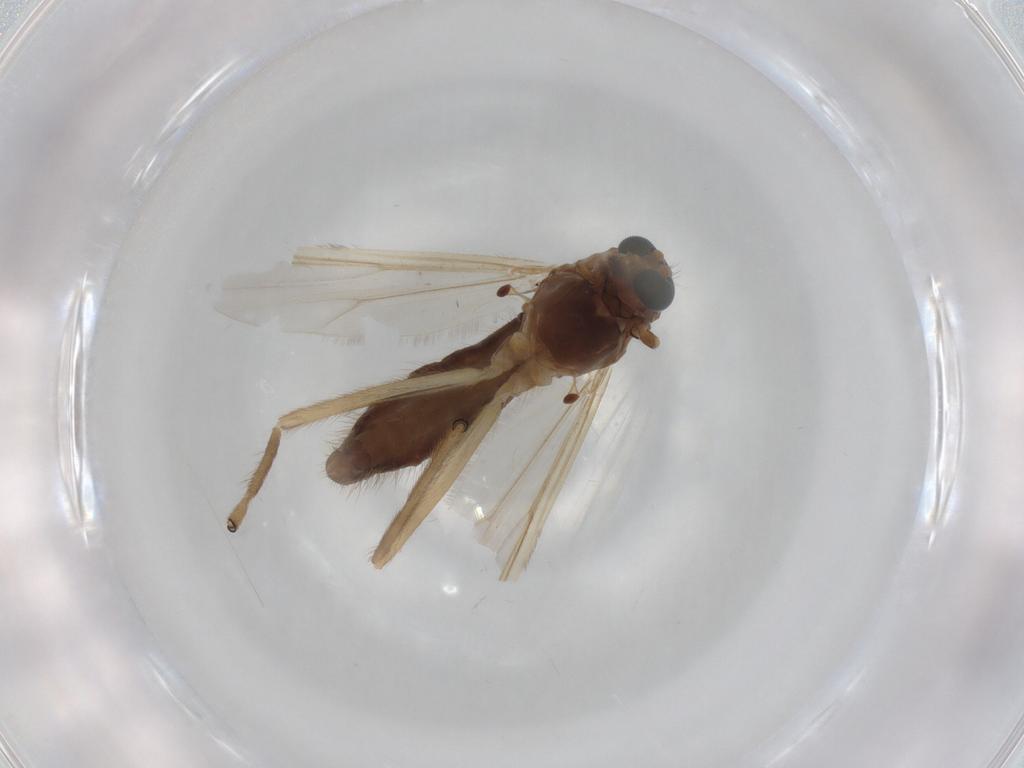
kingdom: Animalia
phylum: Arthropoda
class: Insecta
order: Diptera
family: Chironomidae
